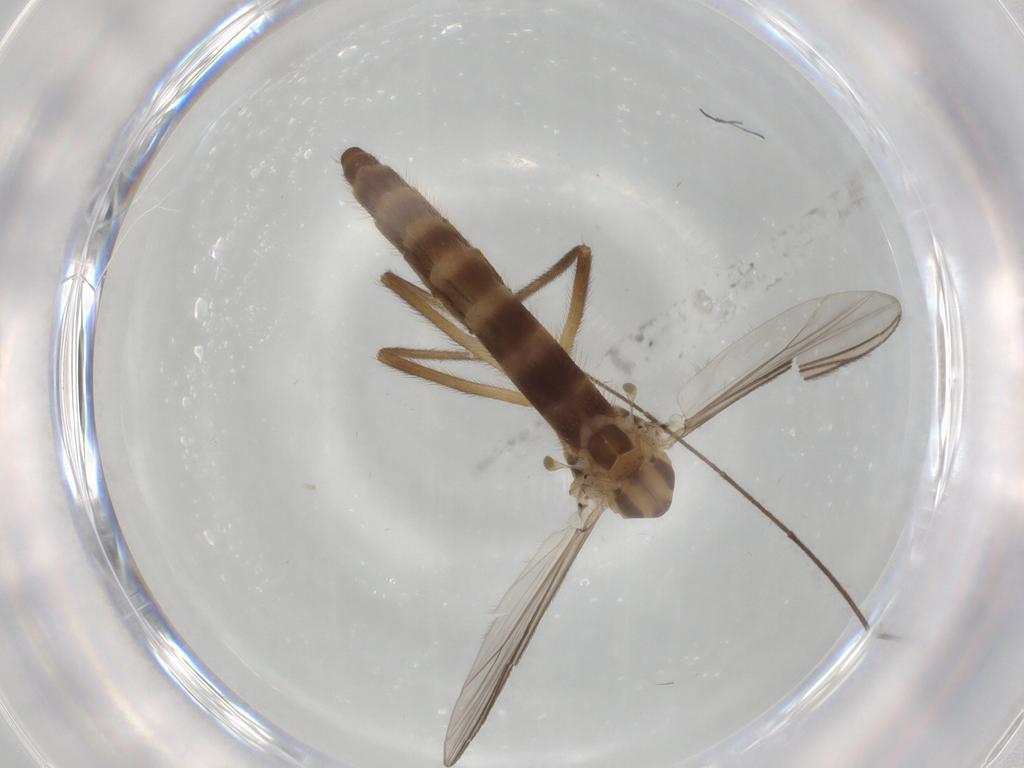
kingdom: Animalia
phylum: Arthropoda
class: Insecta
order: Diptera
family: Chironomidae
